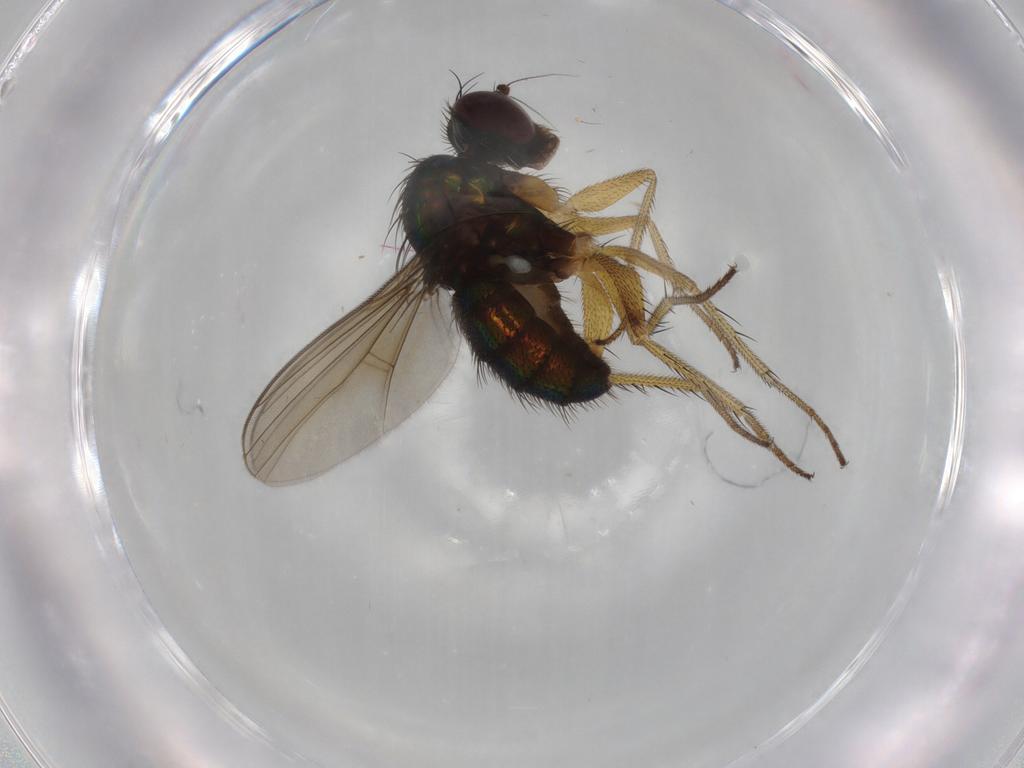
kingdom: Animalia
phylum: Arthropoda
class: Insecta
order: Diptera
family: Dolichopodidae
